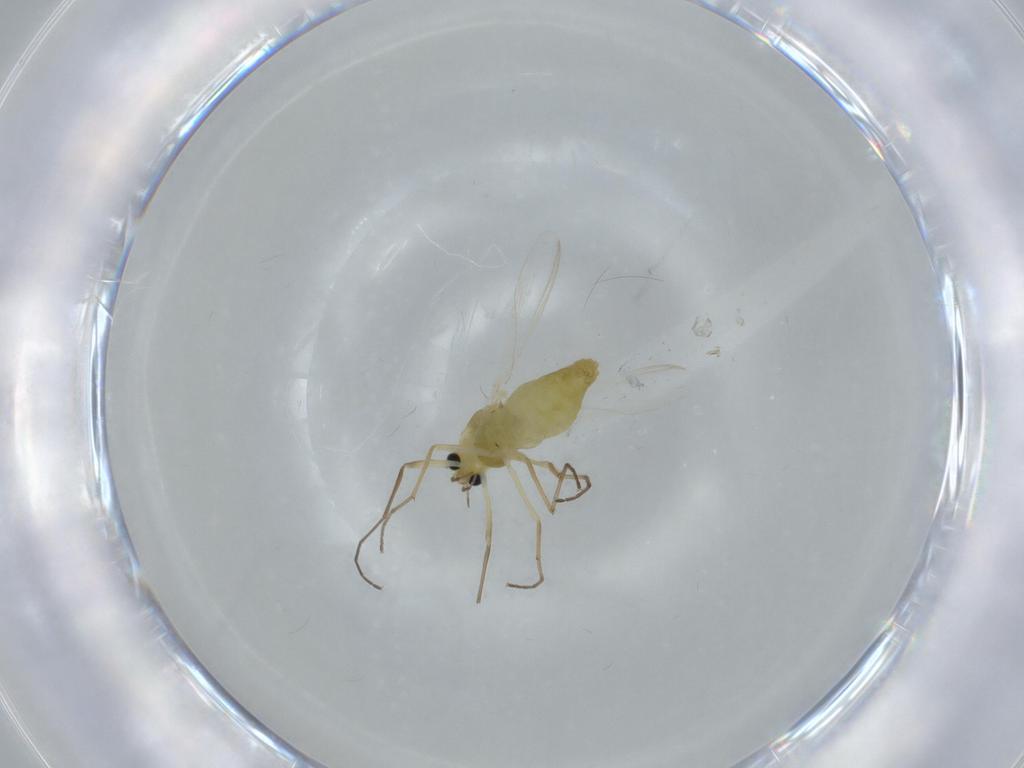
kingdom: Animalia
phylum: Arthropoda
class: Insecta
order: Diptera
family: Chironomidae
